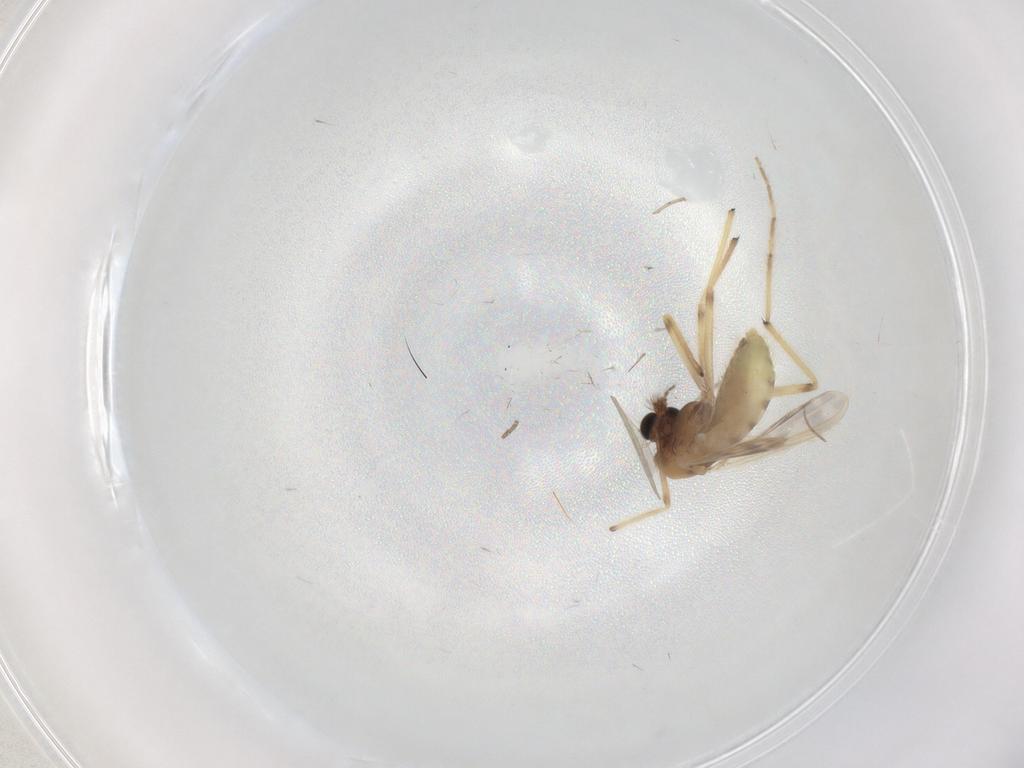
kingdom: Animalia
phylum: Arthropoda
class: Insecta
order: Diptera
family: Chironomidae
